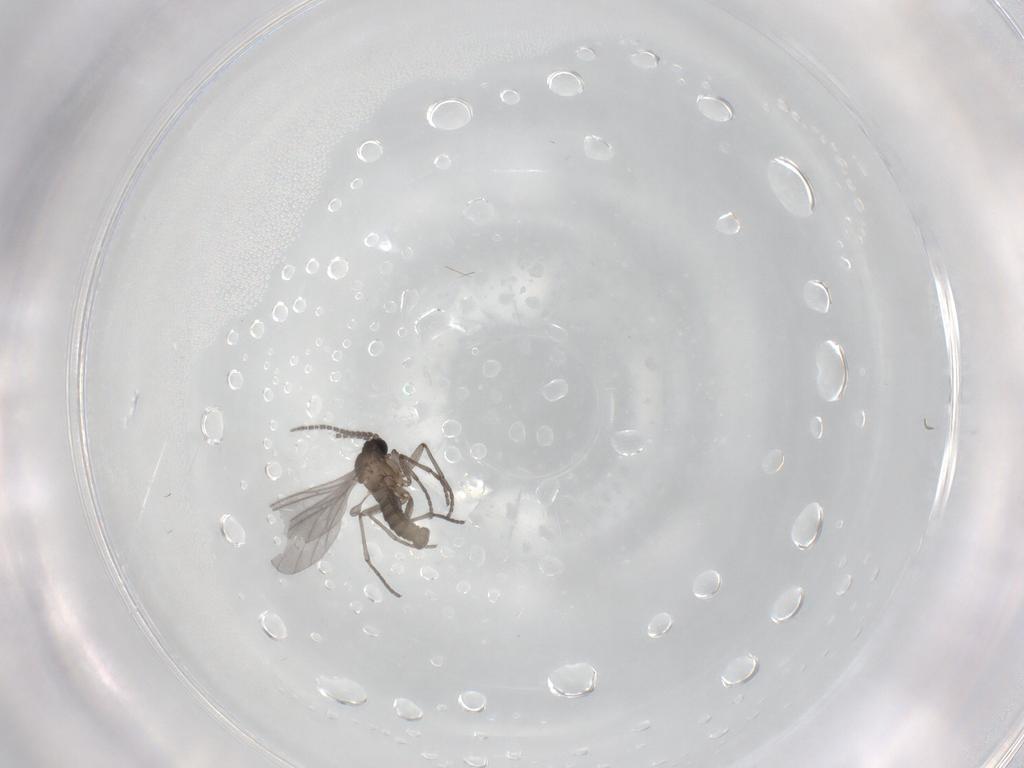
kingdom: Animalia
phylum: Arthropoda
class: Insecta
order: Diptera
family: Sciaridae
